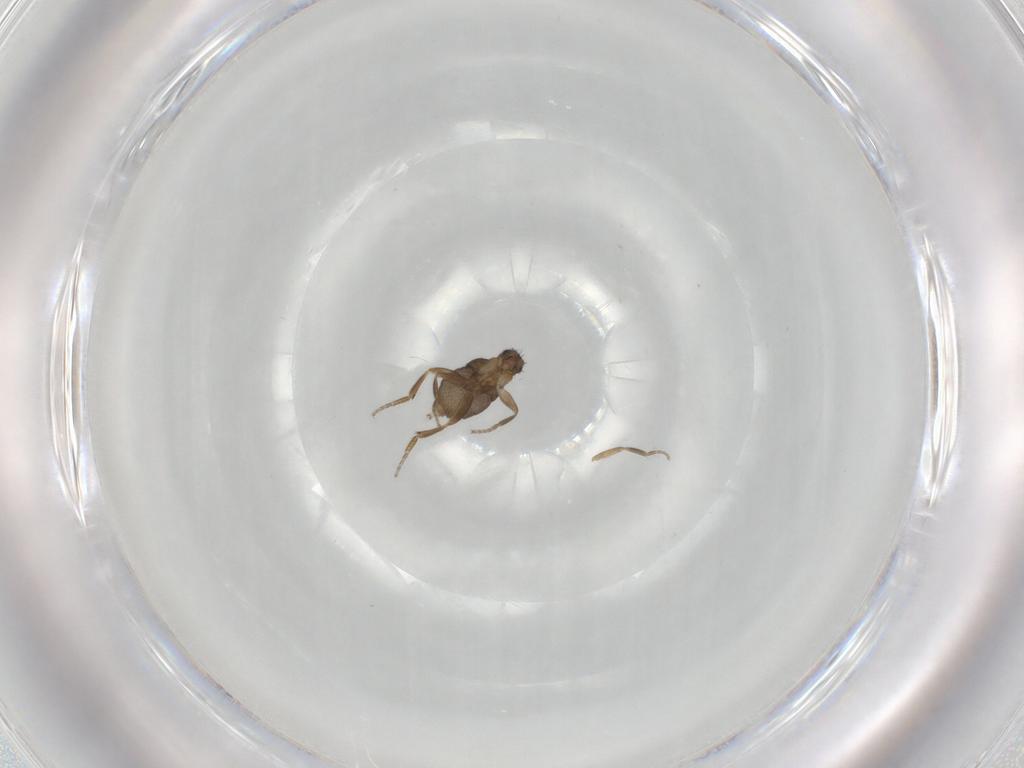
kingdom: Animalia
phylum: Arthropoda
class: Insecta
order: Diptera
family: Phoridae
